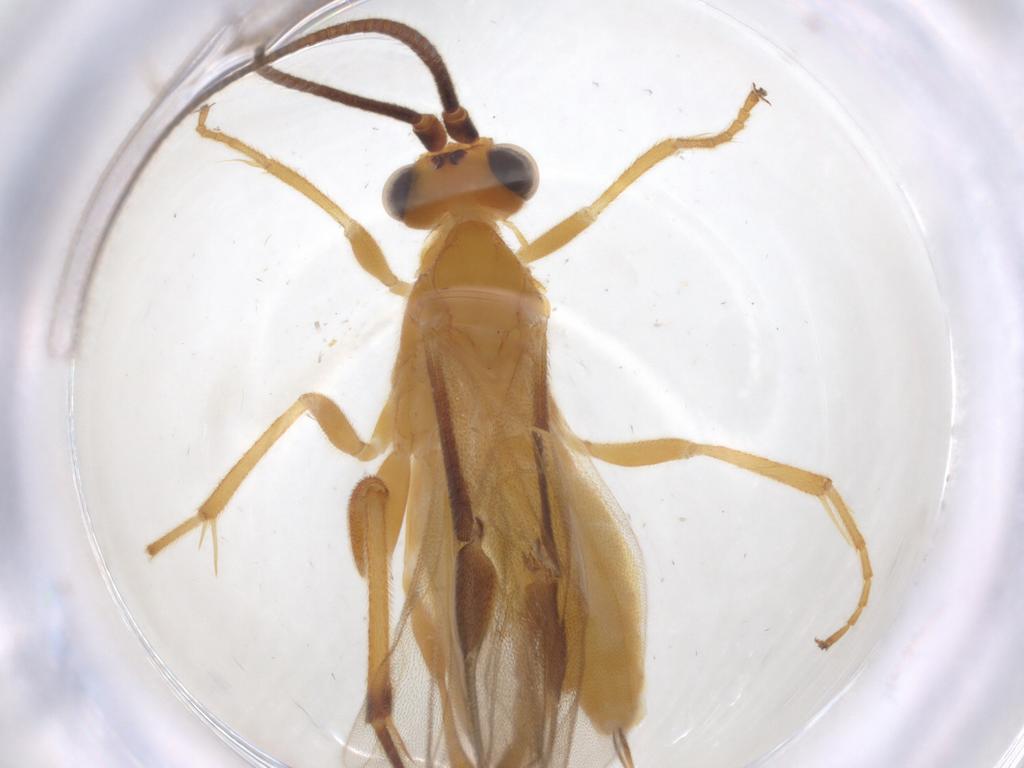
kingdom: Animalia
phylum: Arthropoda
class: Insecta
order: Hymenoptera
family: Braconidae
